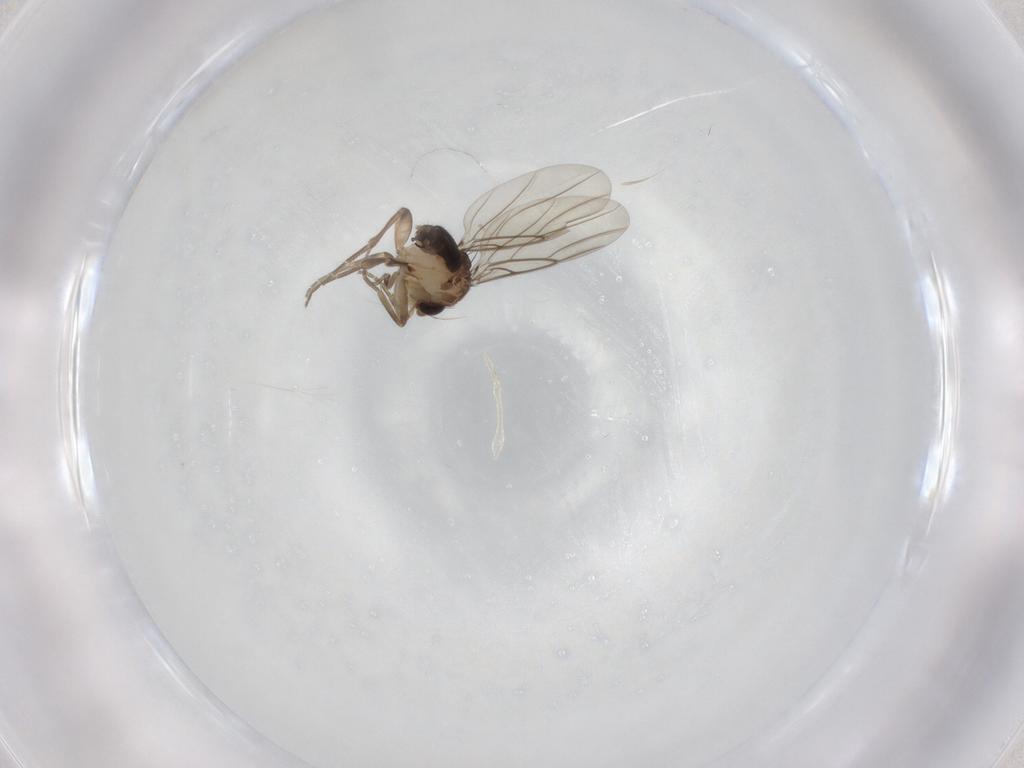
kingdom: Animalia
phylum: Arthropoda
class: Insecta
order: Diptera
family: Phoridae
